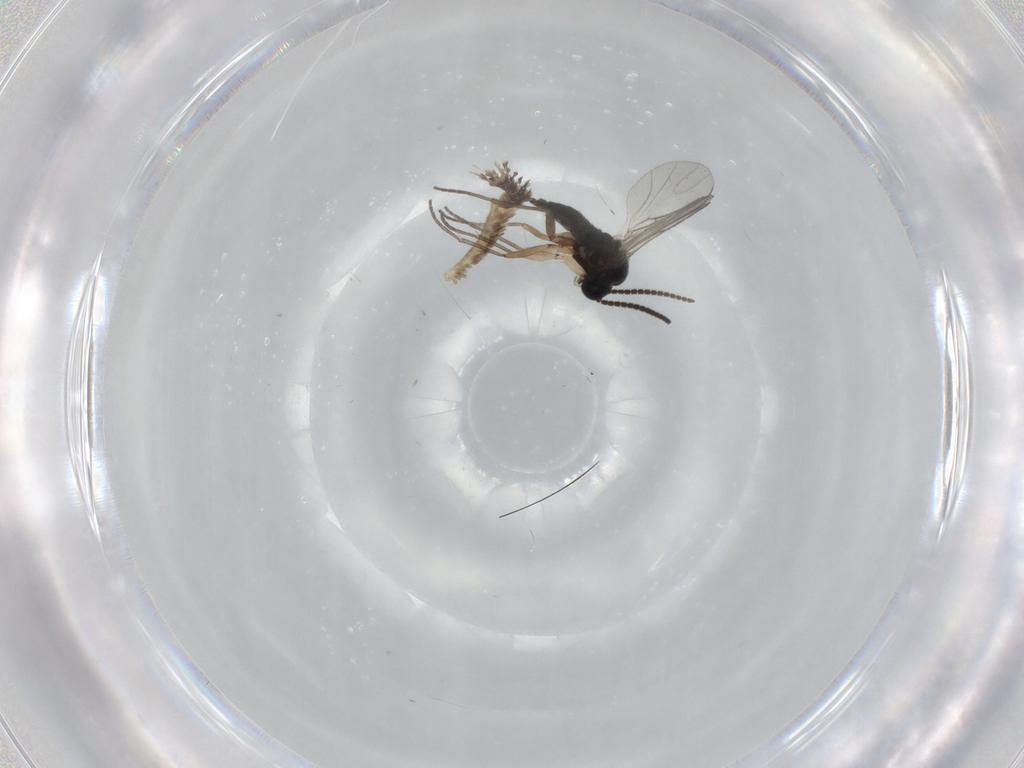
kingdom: Animalia
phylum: Arthropoda
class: Insecta
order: Diptera
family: Sciaridae
